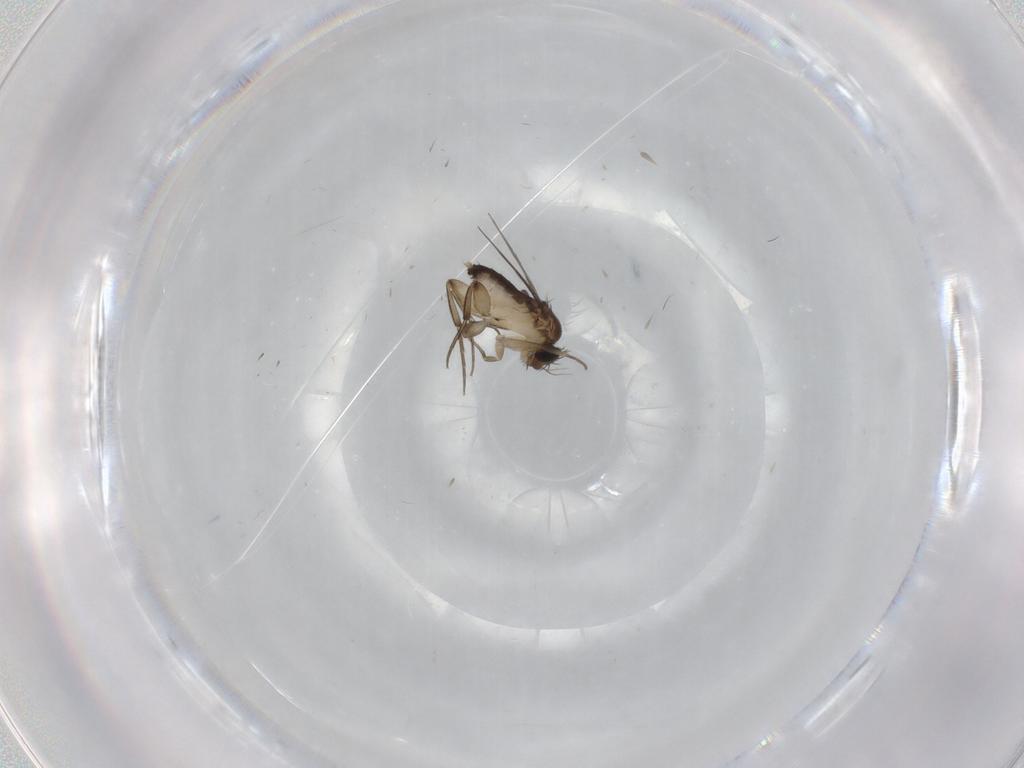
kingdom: Animalia
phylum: Arthropoda
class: Insecta
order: Diptera
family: Phoridae
